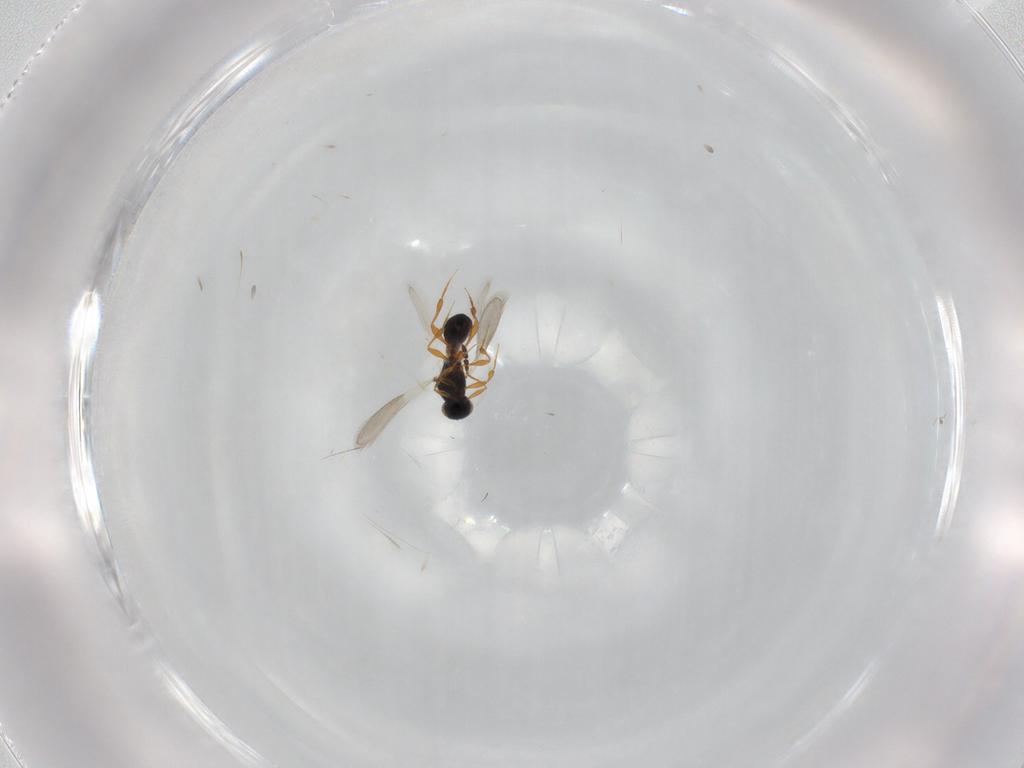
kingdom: Animalia
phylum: Arthropoda
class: Insecta
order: Hymenoptera
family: Platygastridae
